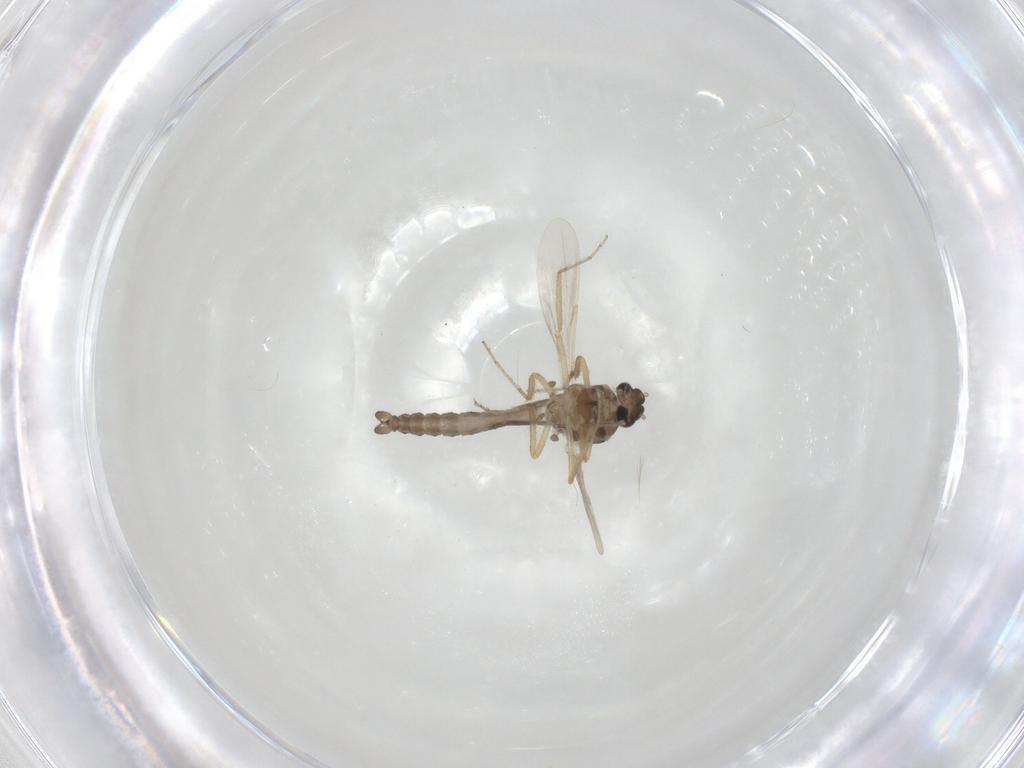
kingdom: Animalia
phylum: Arthropoda
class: Insecta
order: Diptera
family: Ceratopogonidae
